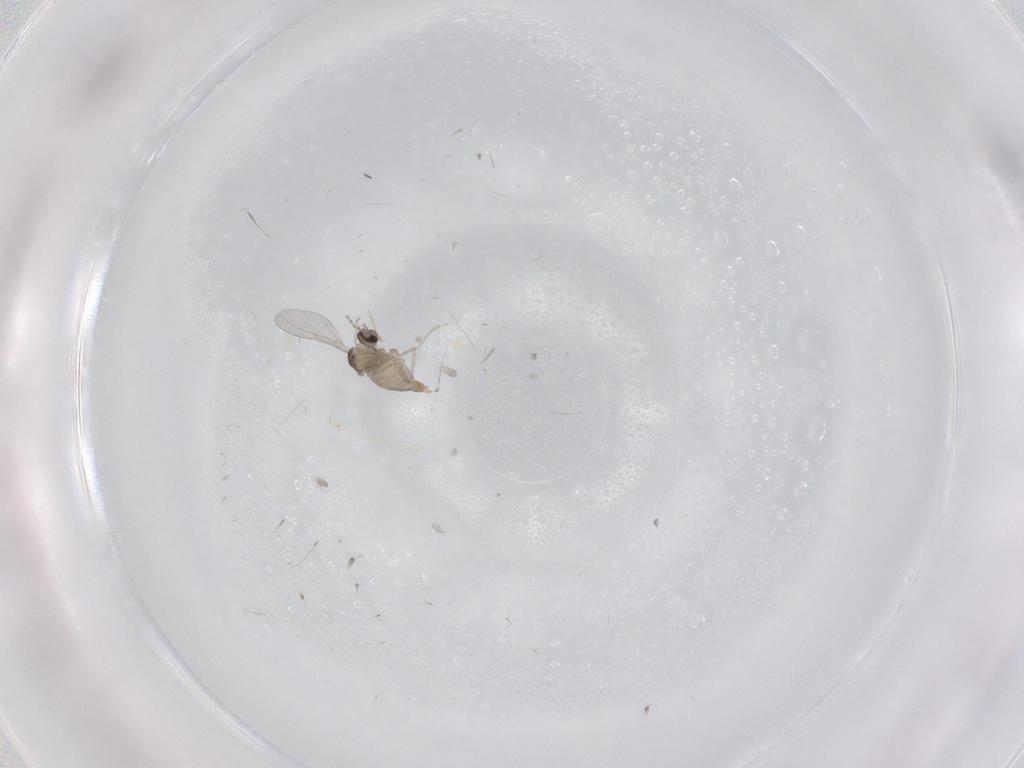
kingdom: Animalia
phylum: Arthropoda
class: Insecta
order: Diptera
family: Cecidomyiidae
